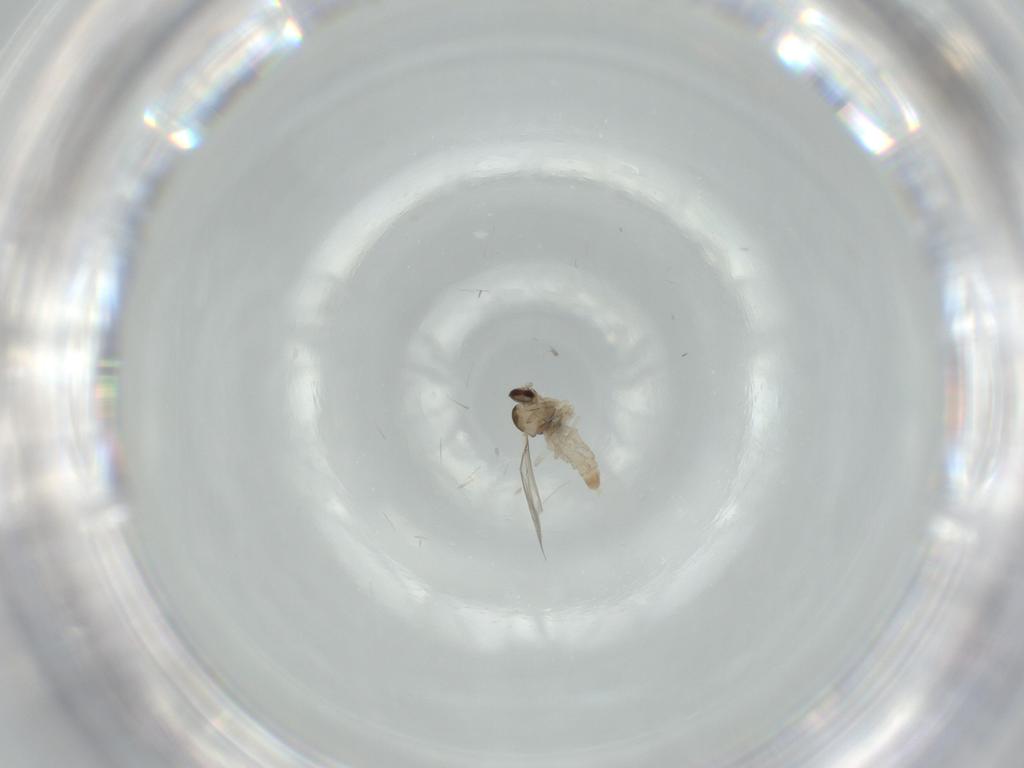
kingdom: Animalia
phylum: Arthropoda
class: Insecta
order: Diptera
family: Cecidomyiidae
